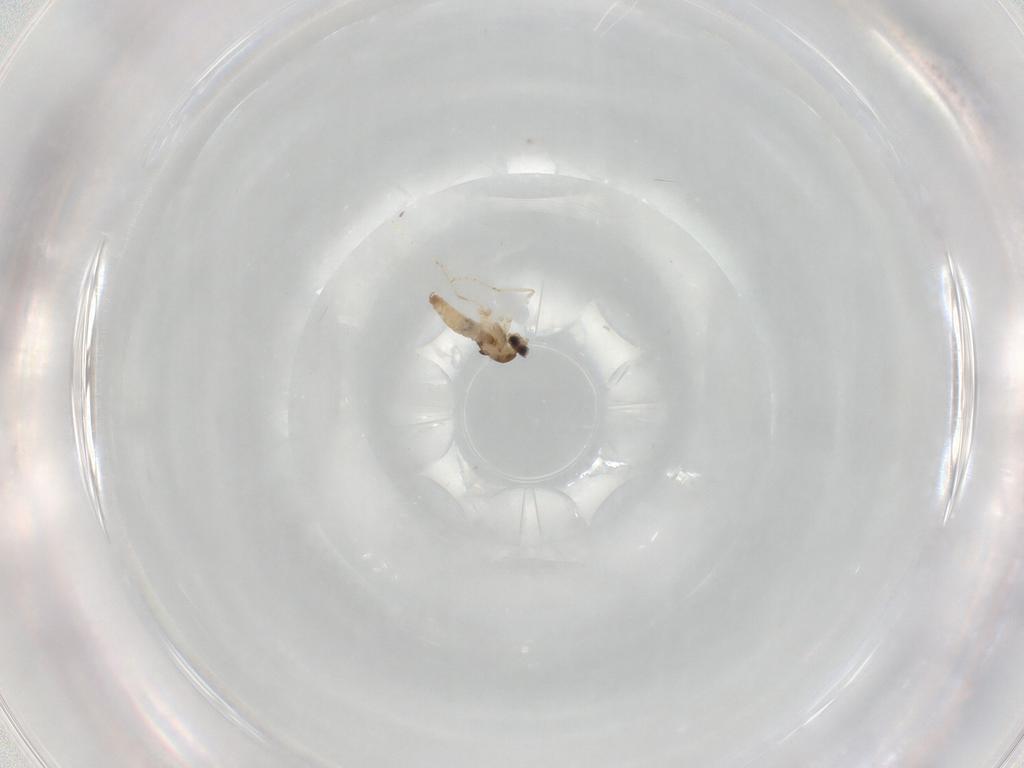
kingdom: Animalia
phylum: Arthropoda
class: Insecta
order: Diptera
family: Cecidomyiidae
